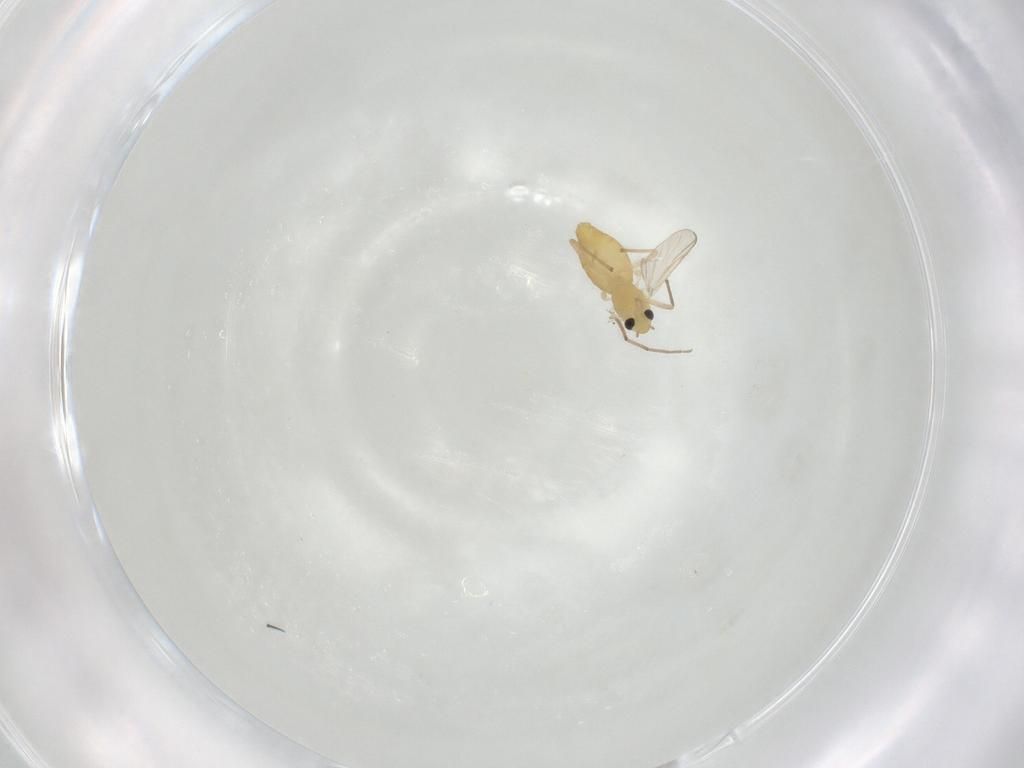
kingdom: Animalia
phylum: Arthropoda
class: Insecta
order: Diptera
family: Chironomidae
